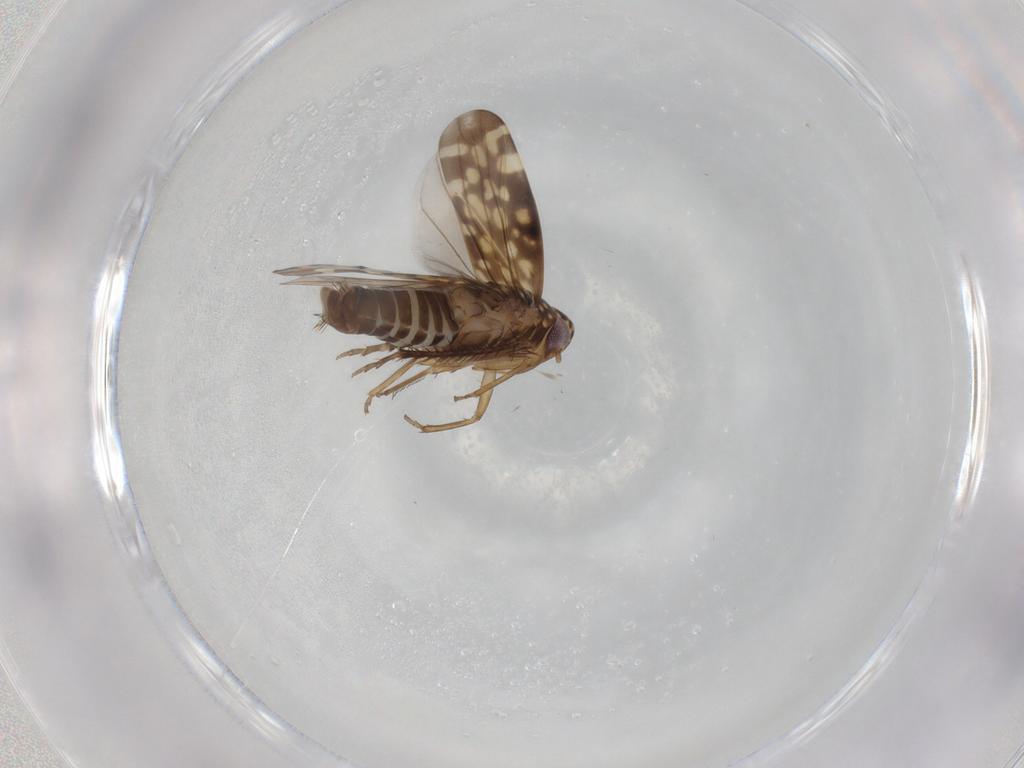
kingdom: Animalia
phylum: Arthropoda
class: Insecta
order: Hemiptera
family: Cicadellidae
